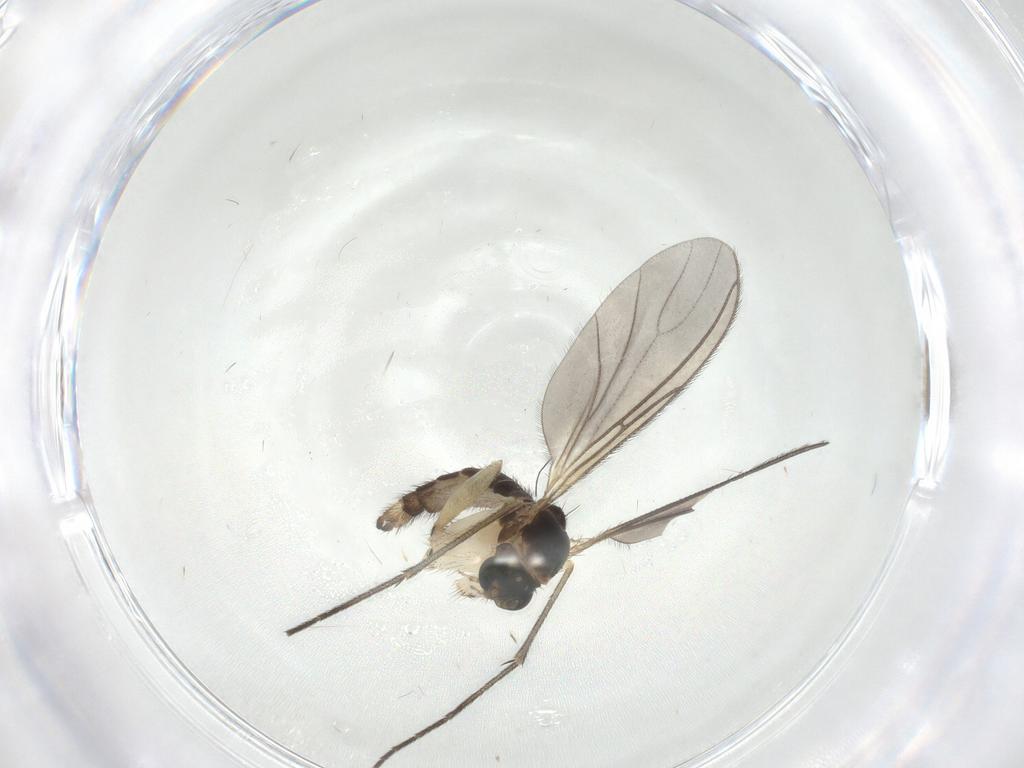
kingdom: Animalia
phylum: Arthropoda
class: Insecta
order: Diptera
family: Sciaridae
